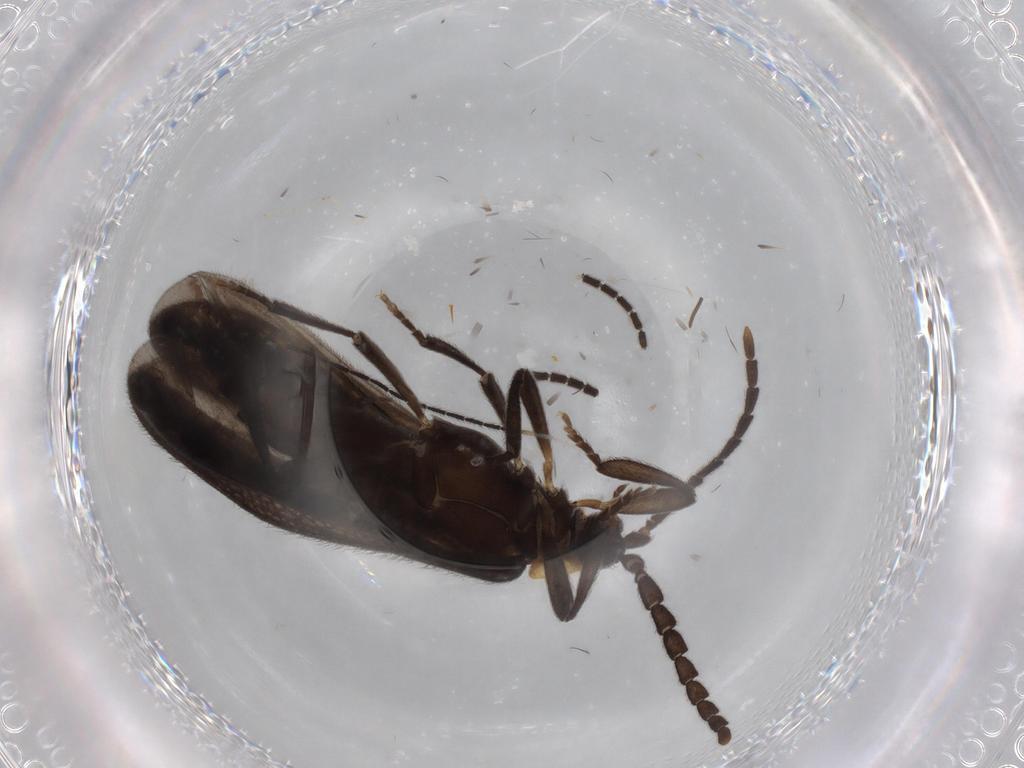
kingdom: Animalia
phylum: Arthropoda
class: Insecta
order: Coleoptera
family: Lycidae
